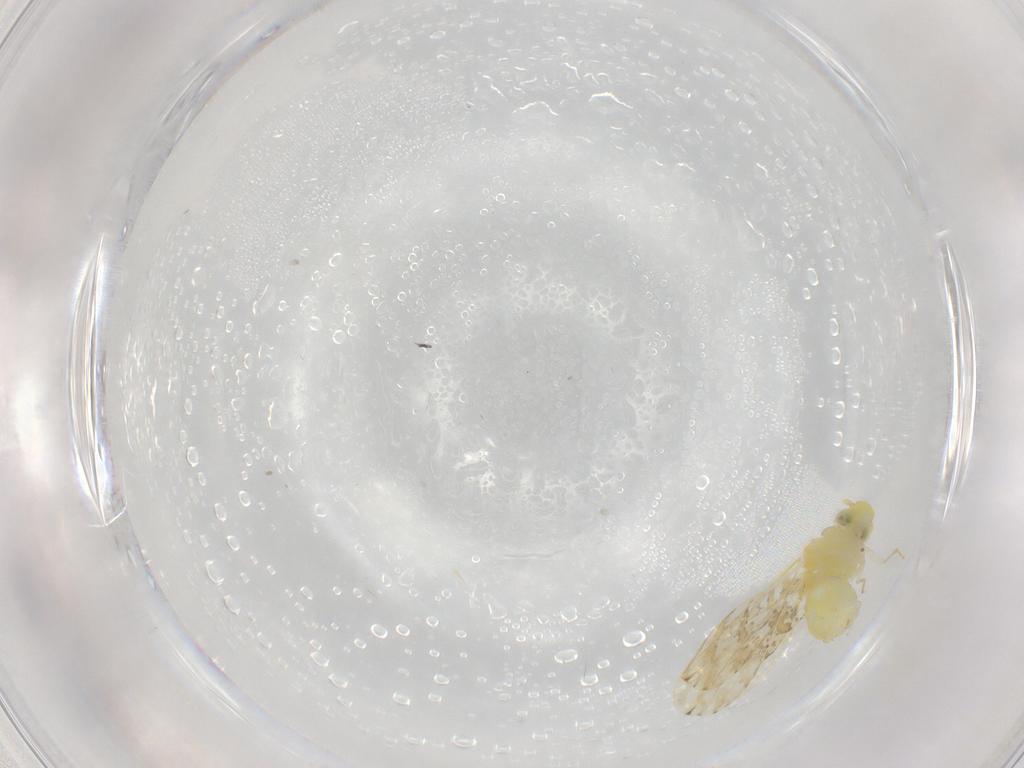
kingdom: Animalia
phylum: Arthropoda
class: Insecta
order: Hemiptera
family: Aleyrodidae
